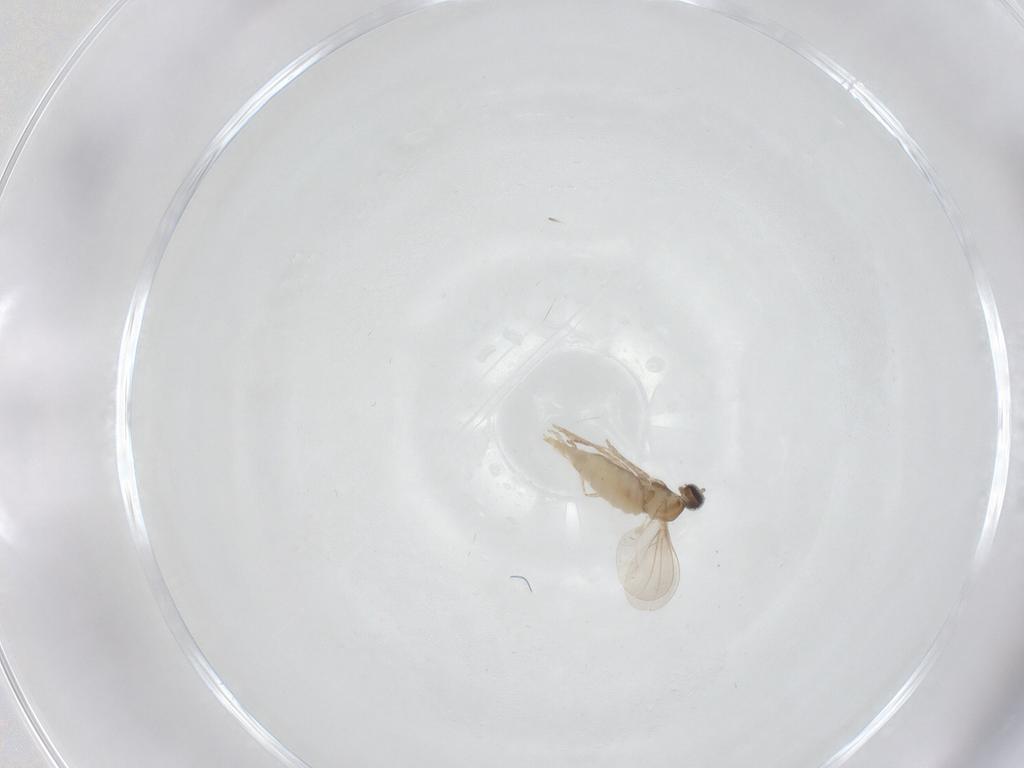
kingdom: Animalia
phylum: Arthropoda
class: Insecta
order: Diptera
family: Cecidomyiidae
